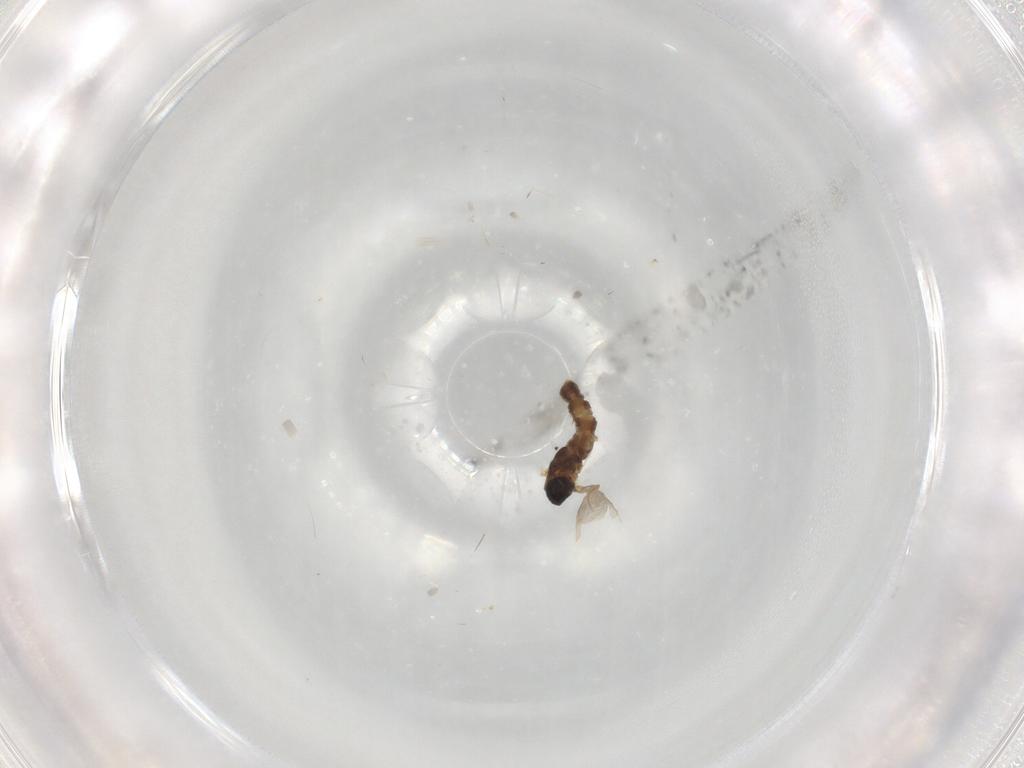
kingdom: Animalia
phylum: Arthropoda
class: Insecta
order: Diptera
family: Cecidomyiidae
